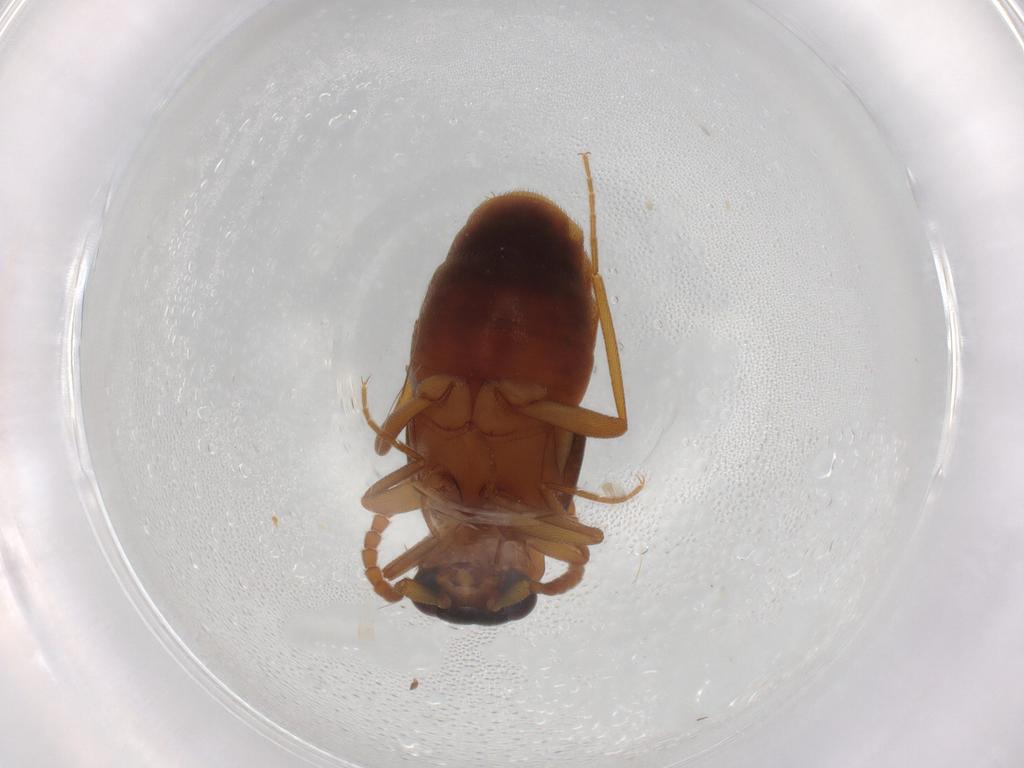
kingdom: Animalia
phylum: Arthropoda
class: Insecta
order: Coleoptera
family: Staphylinidae
